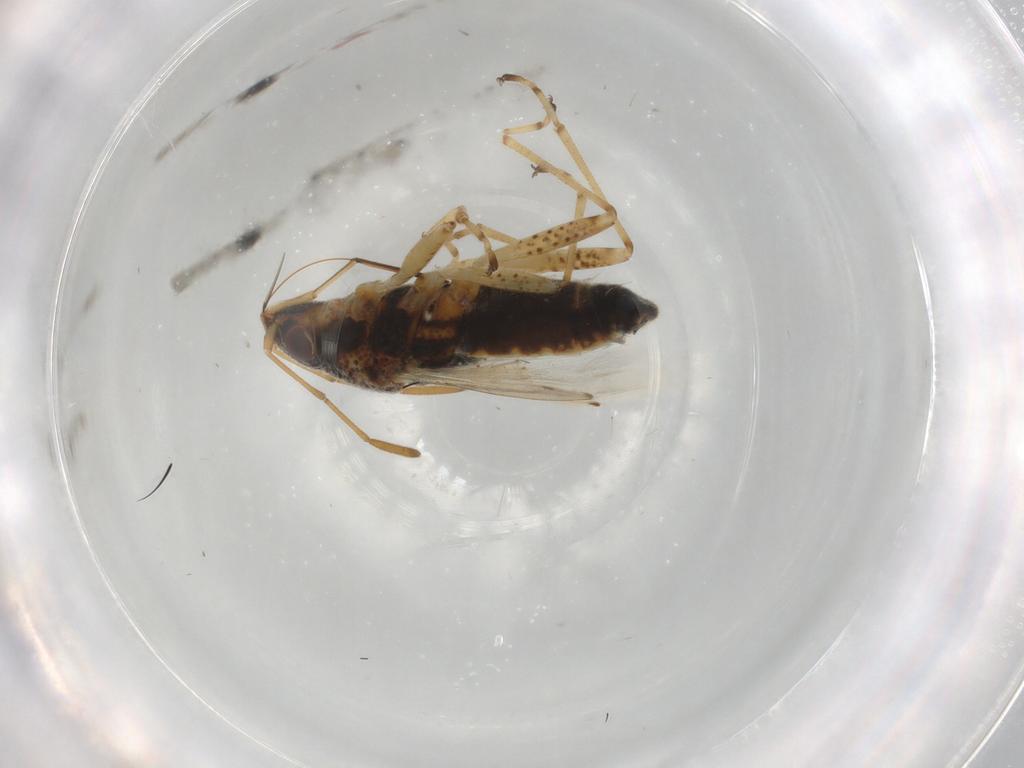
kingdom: Animalia
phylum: Arthropoda
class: Insecta
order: Hemiptera
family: Lygaeidae
